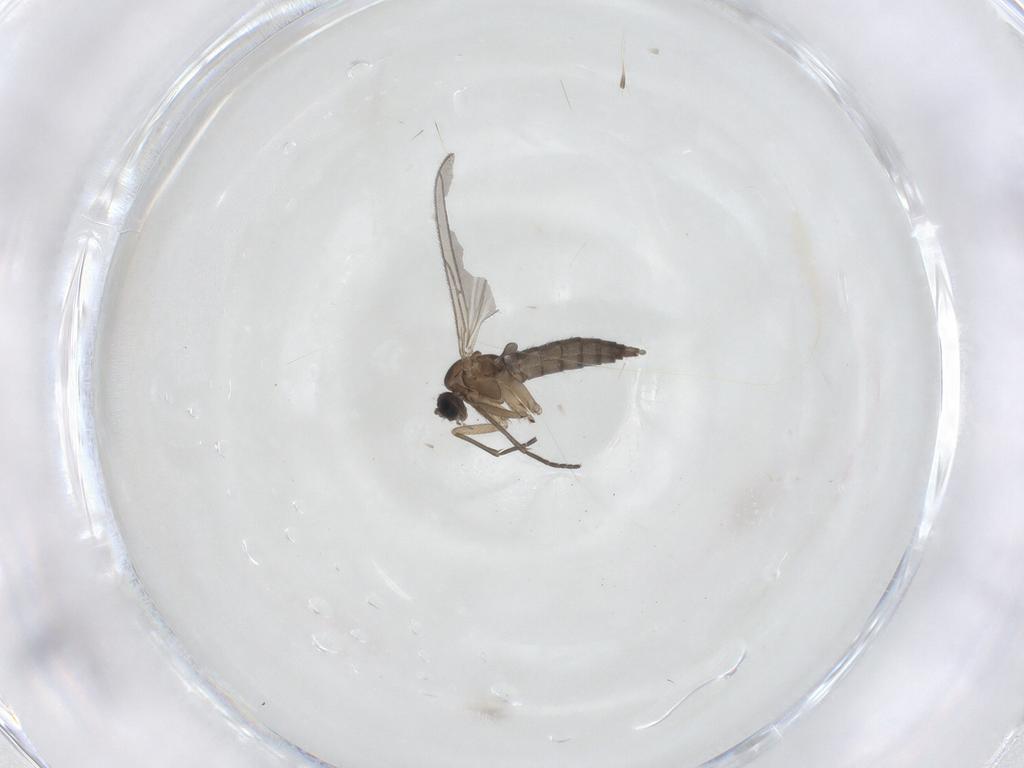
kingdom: Animalia
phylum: Arthropoda
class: Insecta
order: Diptera
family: Sciaridae
